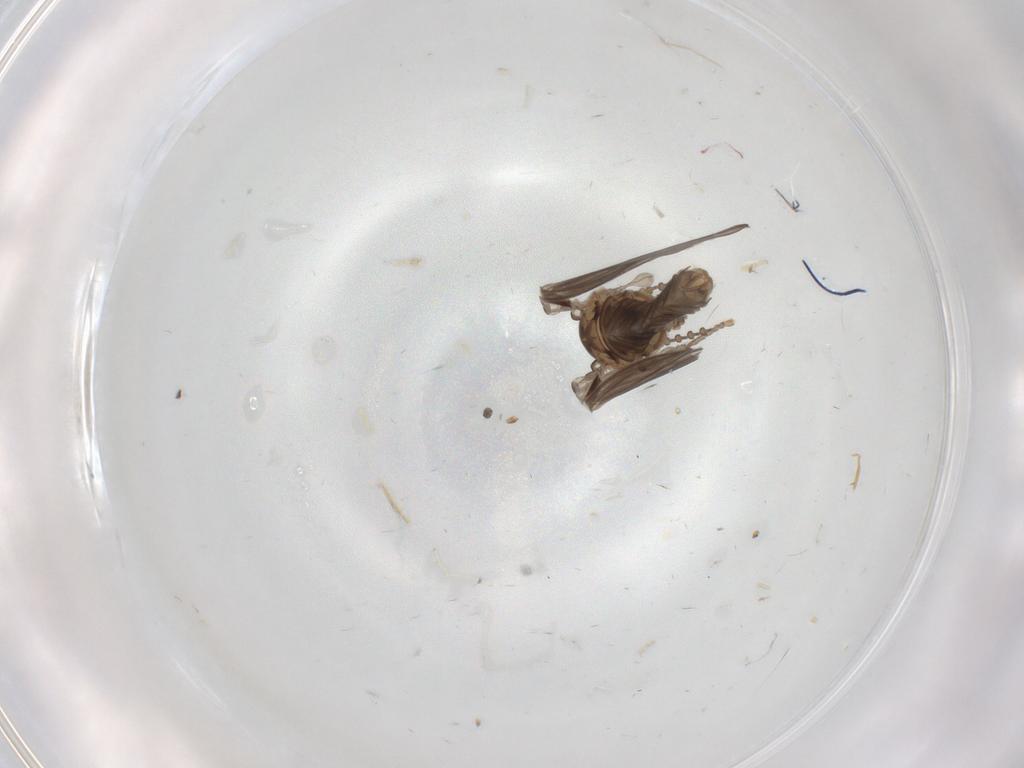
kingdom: Animalia
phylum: Arthropoda
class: Insecta
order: Diptera
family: Psychodidae
